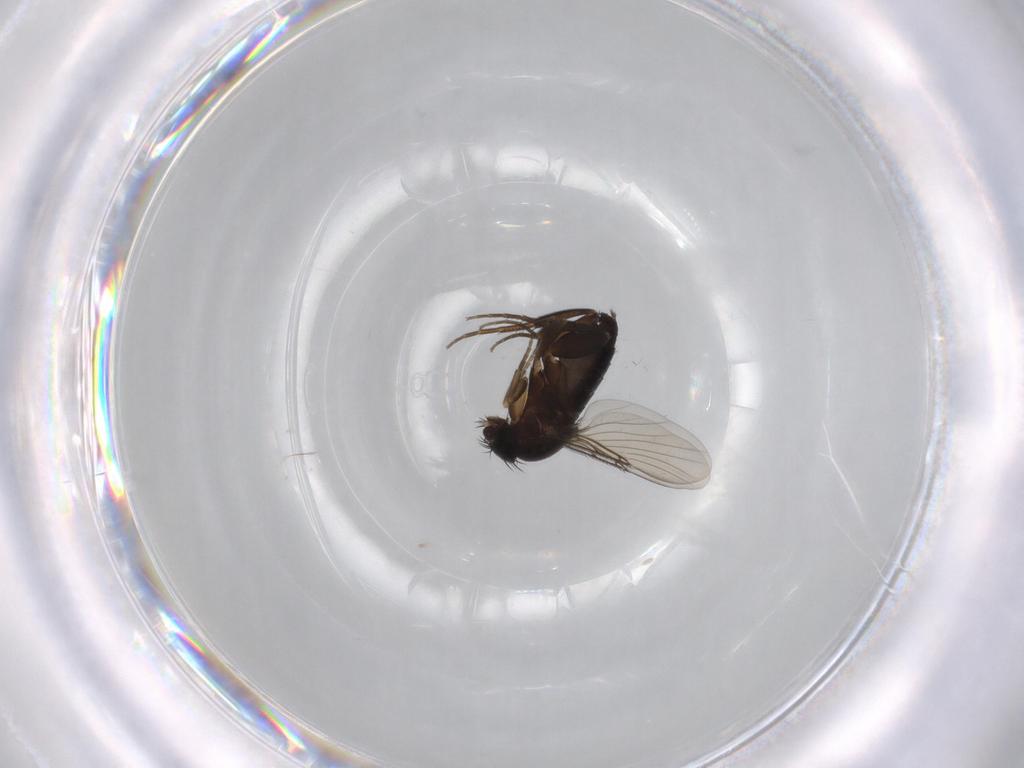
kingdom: Animalia
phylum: Arthropoda
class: Insecta
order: Diptera
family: Phoridae
